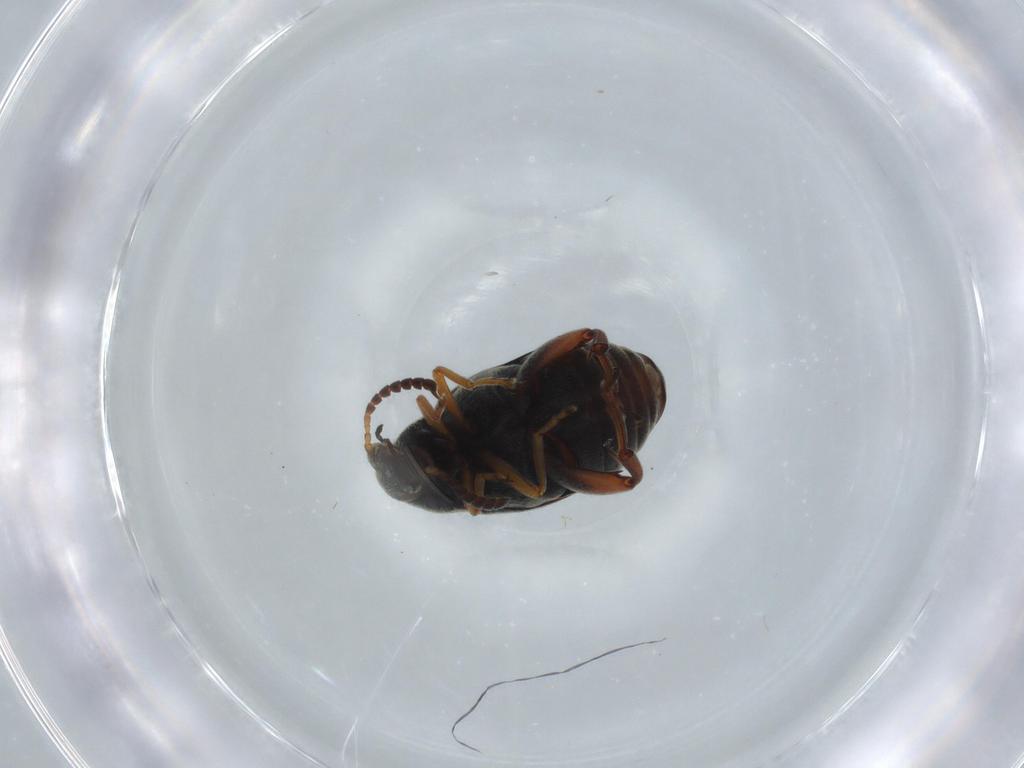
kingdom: Animalia
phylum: Arthropoda
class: Insecta
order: Coleoptera
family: Chrysomelidae
